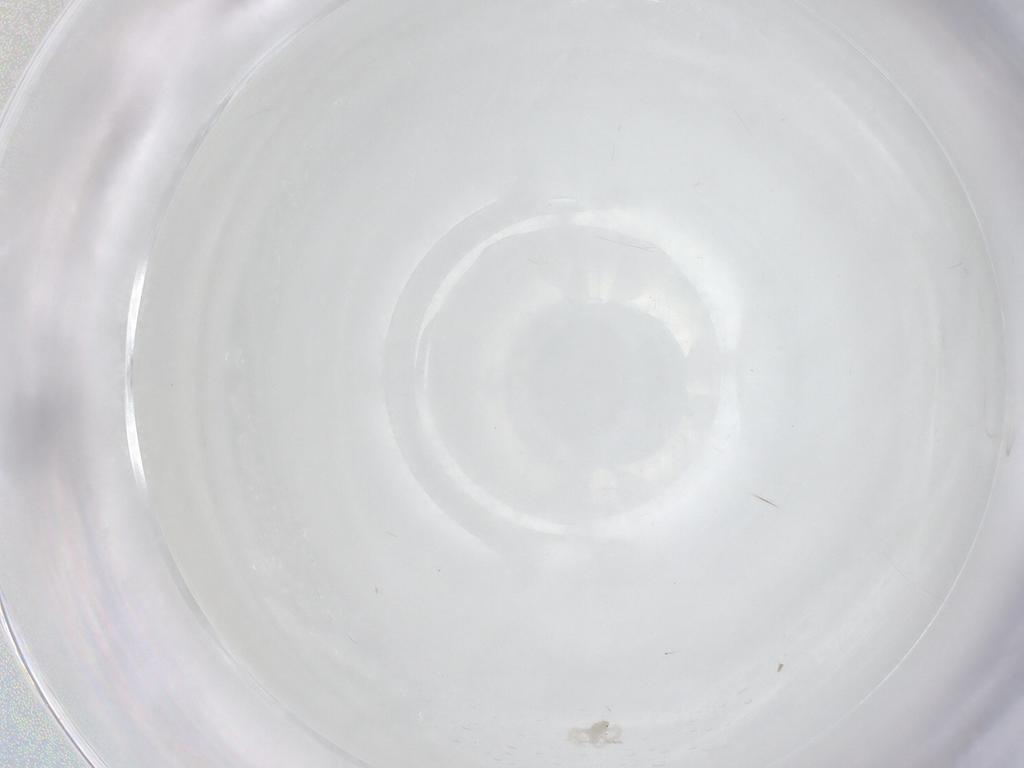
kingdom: Animalia
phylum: Arthropoda
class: Arachnida
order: Trombidiformes
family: Anystidae
